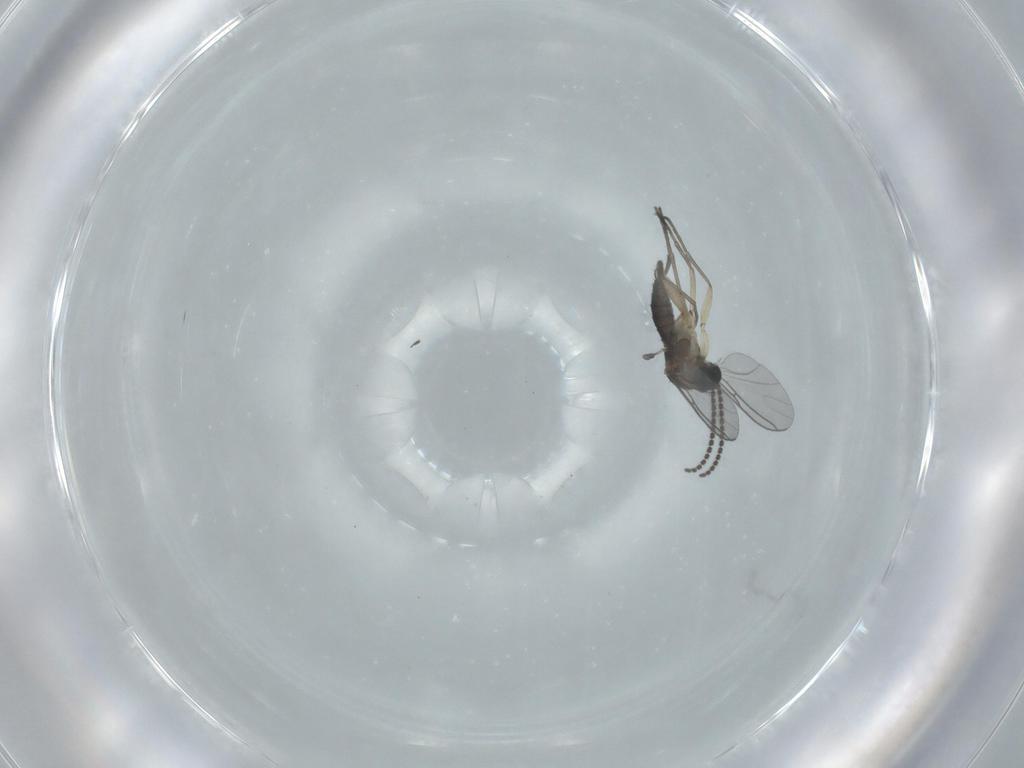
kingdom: Animalia
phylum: Arthropoda
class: Insecta
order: Diptera
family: Sciaridae
